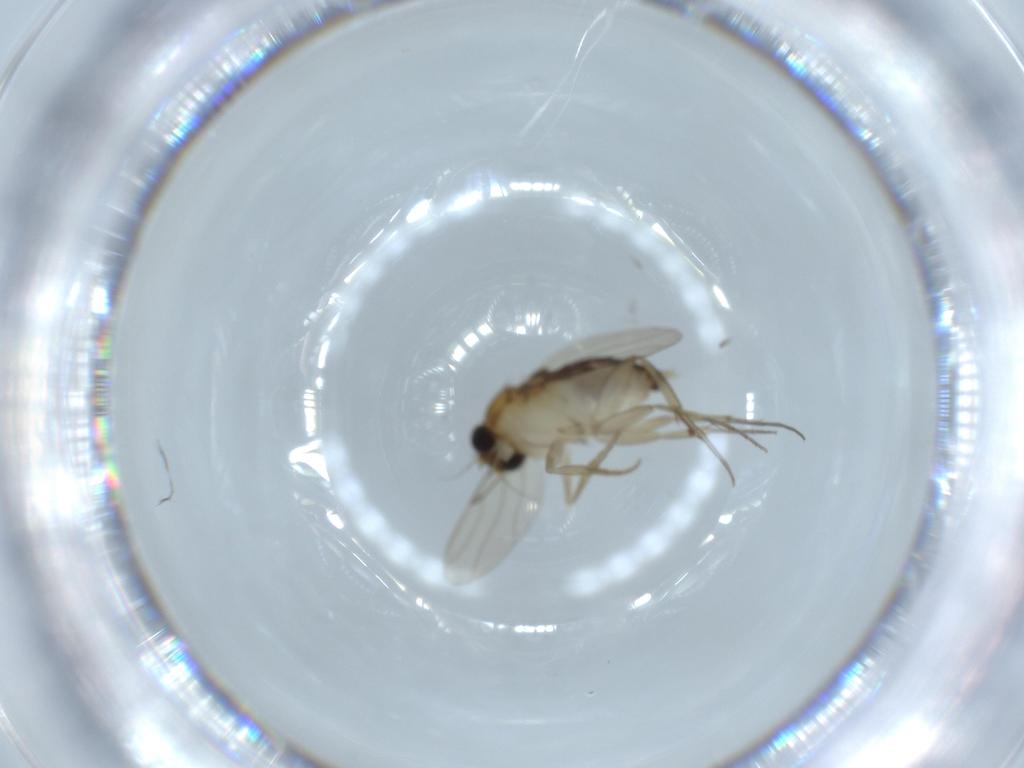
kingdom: Animalia
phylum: Arthropoda
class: Insecta
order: Diptera
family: Phoridae
